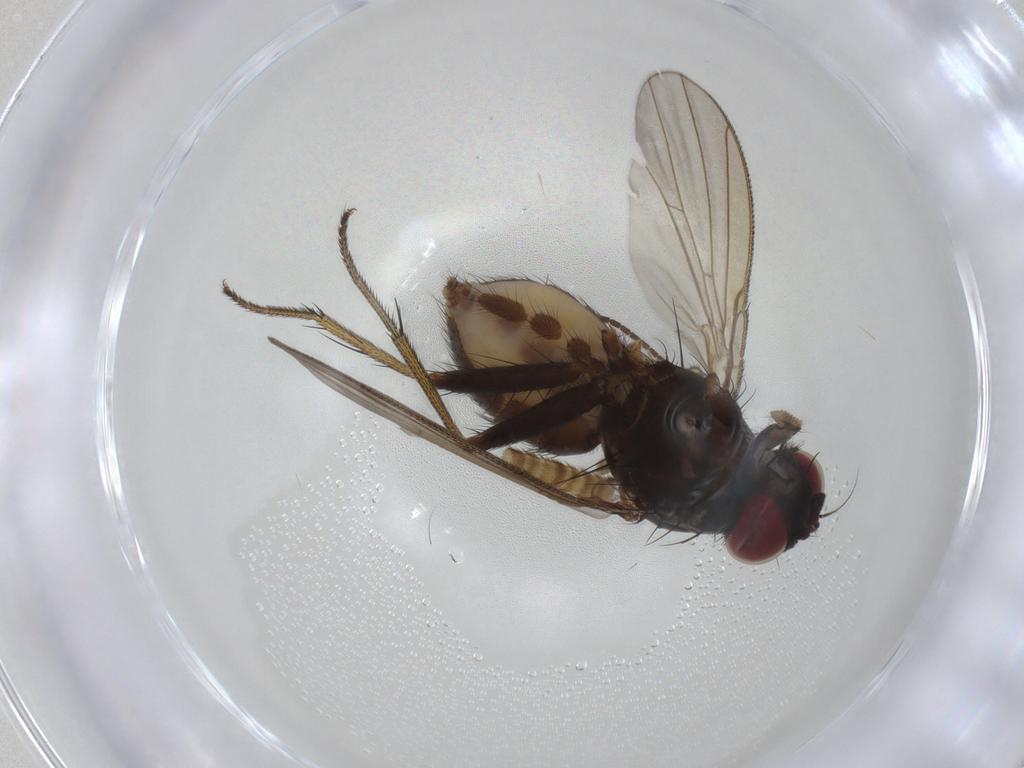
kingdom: Animalia
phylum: Arthropoda
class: Insecta
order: Diptera
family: Muscidae
